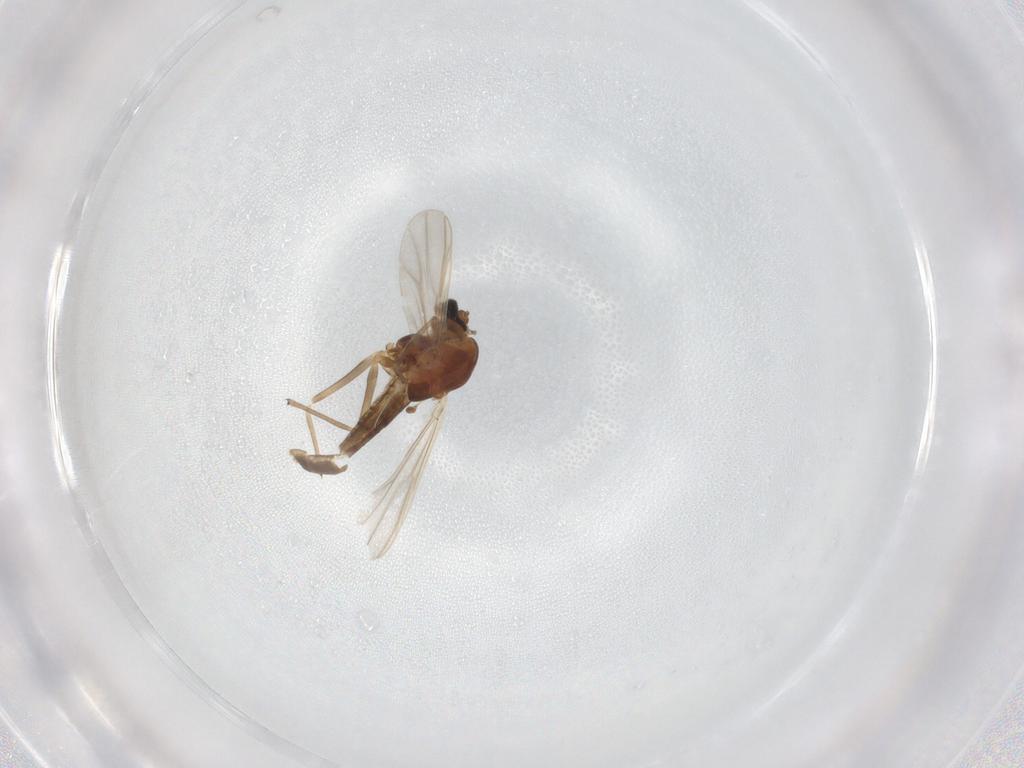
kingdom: Animalia
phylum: Arthropoda
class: Insecta
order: Diptera
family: Chironomidae
